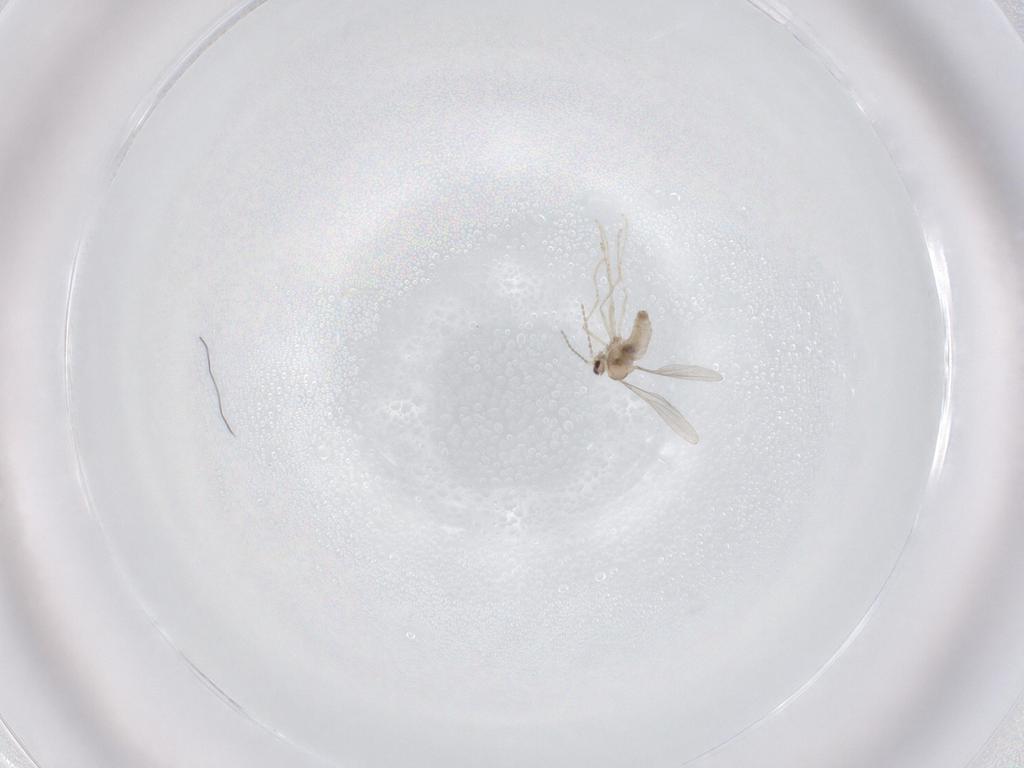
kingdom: Animalia
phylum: Arthropoda
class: Insecta
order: Diptera
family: Cecidomyiidae
